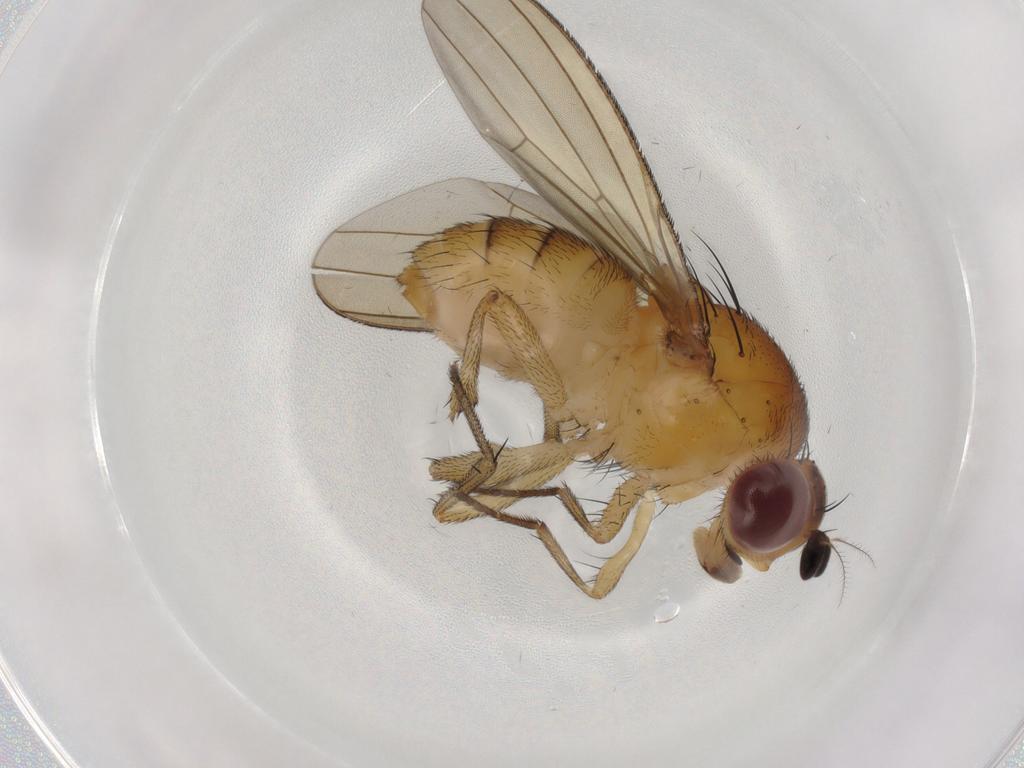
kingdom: Animalia
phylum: Arthropoda
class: Insecta
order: Diptera
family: Lauxaniidae
